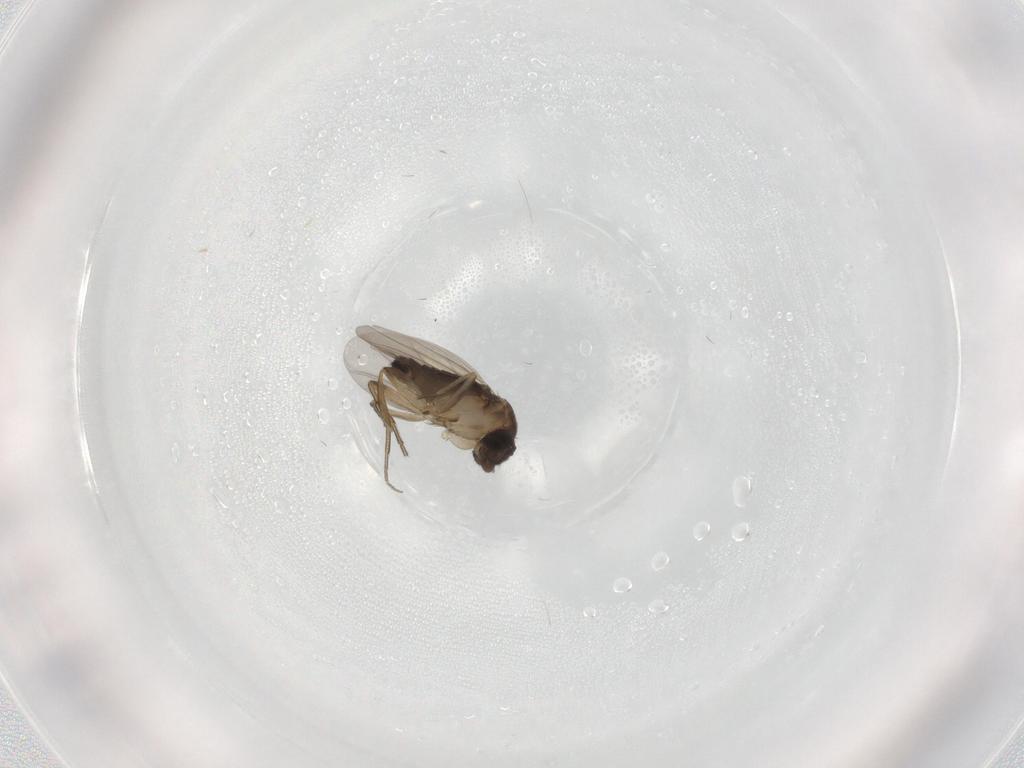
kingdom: Animalia
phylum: Arthropoda
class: Insecta
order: Diptera
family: Phoridae
